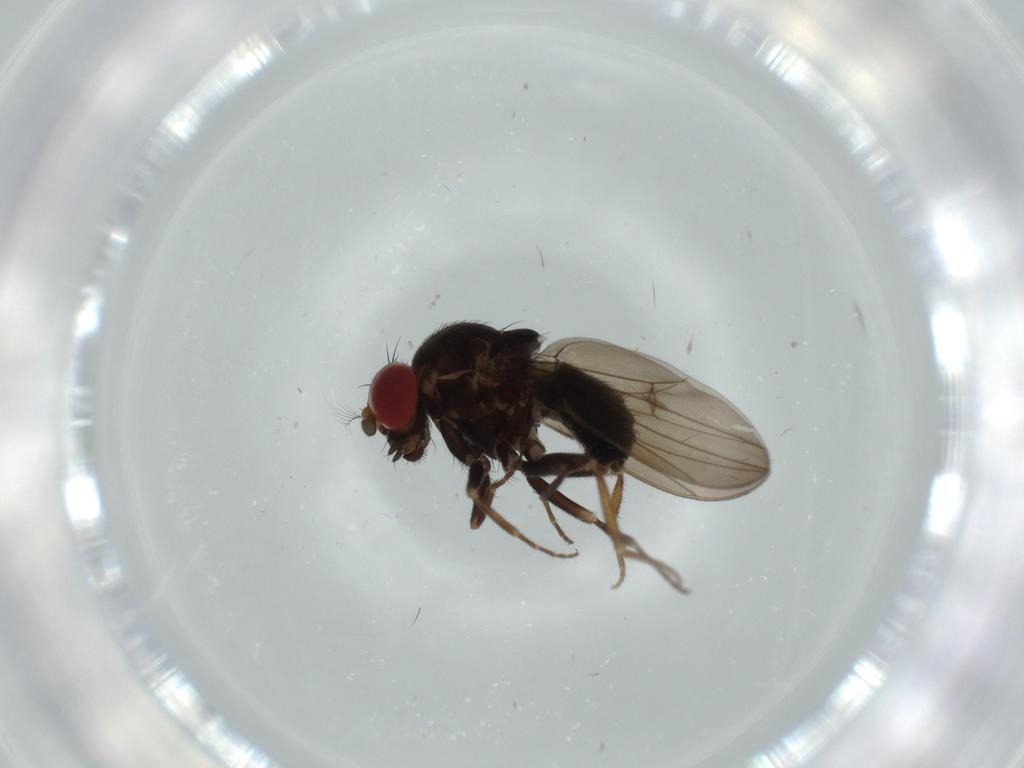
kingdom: Animalia
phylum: Arthropoda
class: Insecta
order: Diptera
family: Drosophilidae
